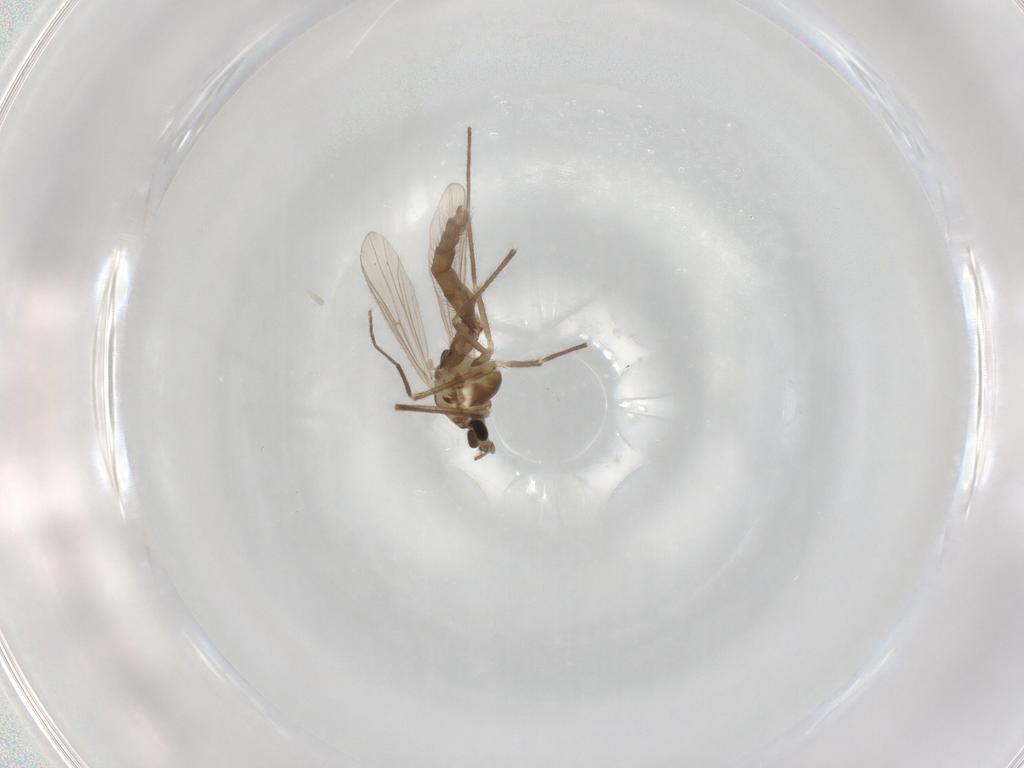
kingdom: Animalia
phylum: Arthropoda
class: Insecta
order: Diptera
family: Chironomidae
